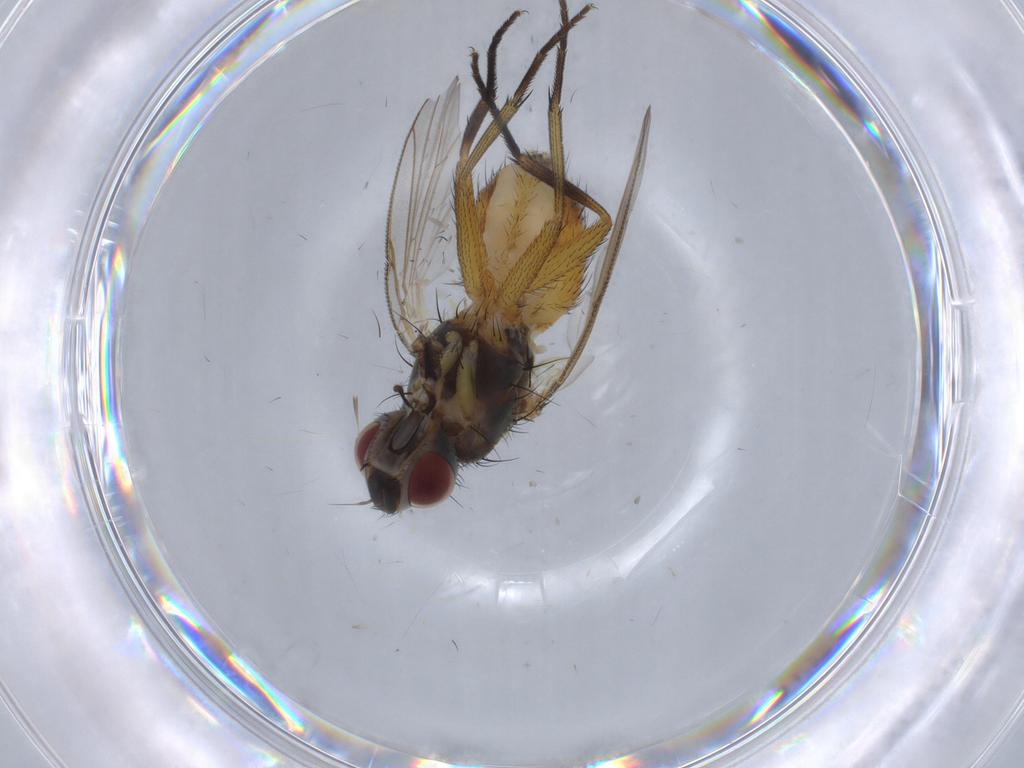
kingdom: Animalia
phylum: Arthropoda
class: Insecta
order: Diptera
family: Muscidae
